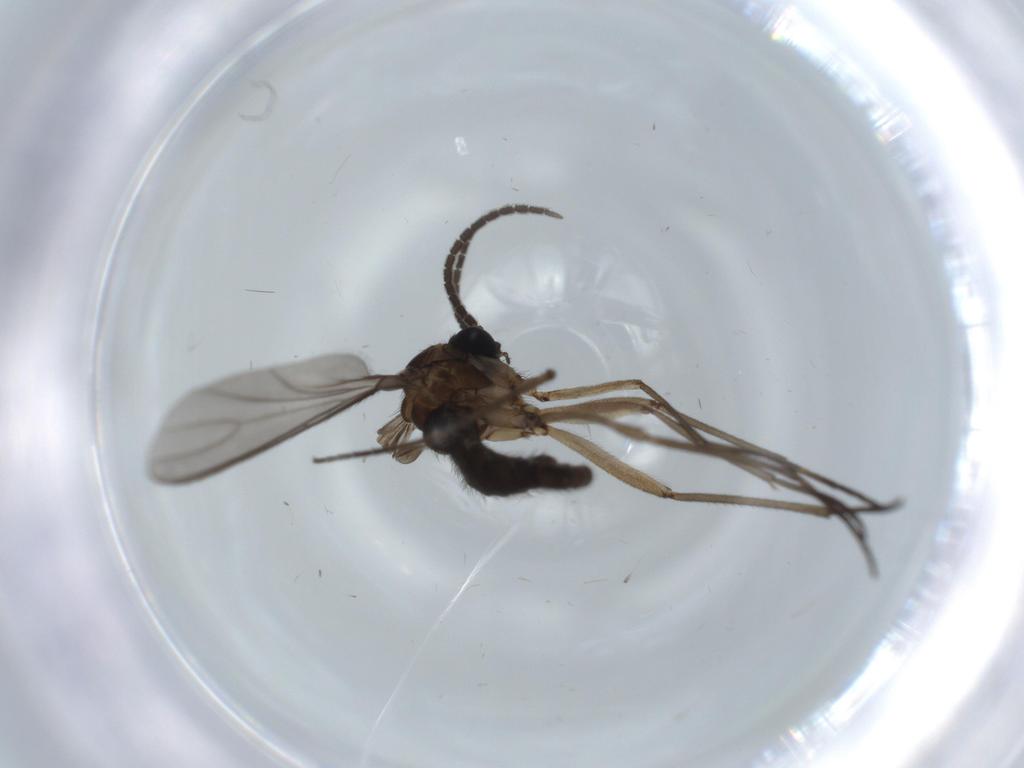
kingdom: Animalia
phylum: Arthropoda
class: Insecta
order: Diptera
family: Sciaridae
